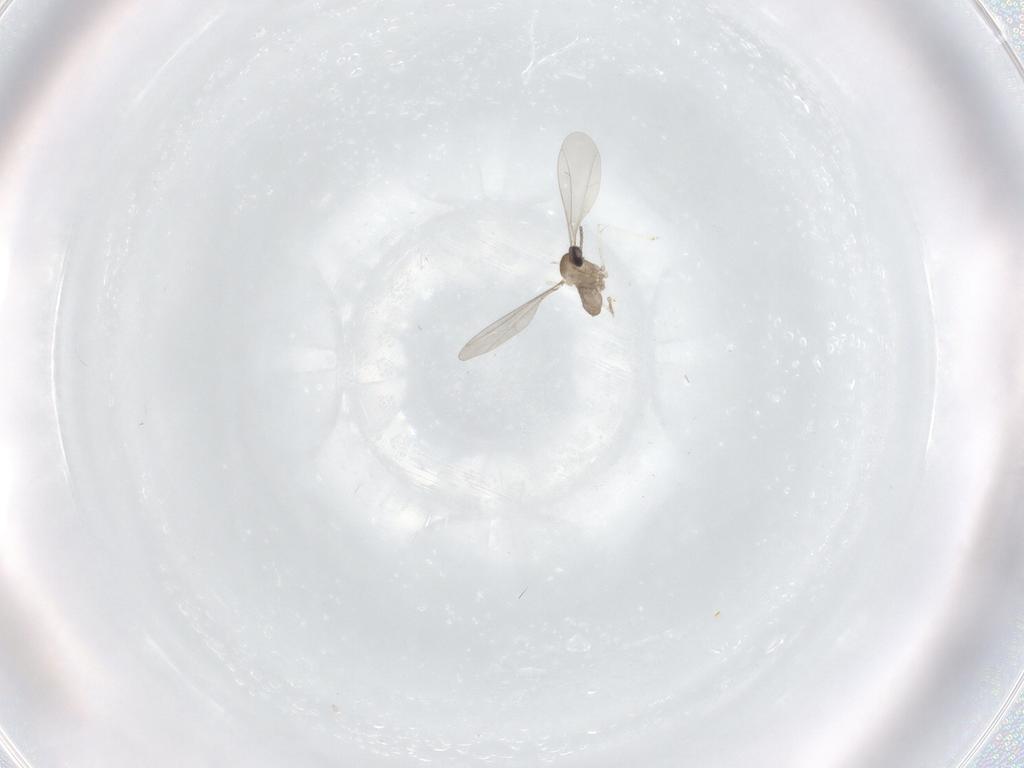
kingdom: Animalia
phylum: Arthropoda
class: Insecta
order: Diptera
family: Cecidomyiidae
